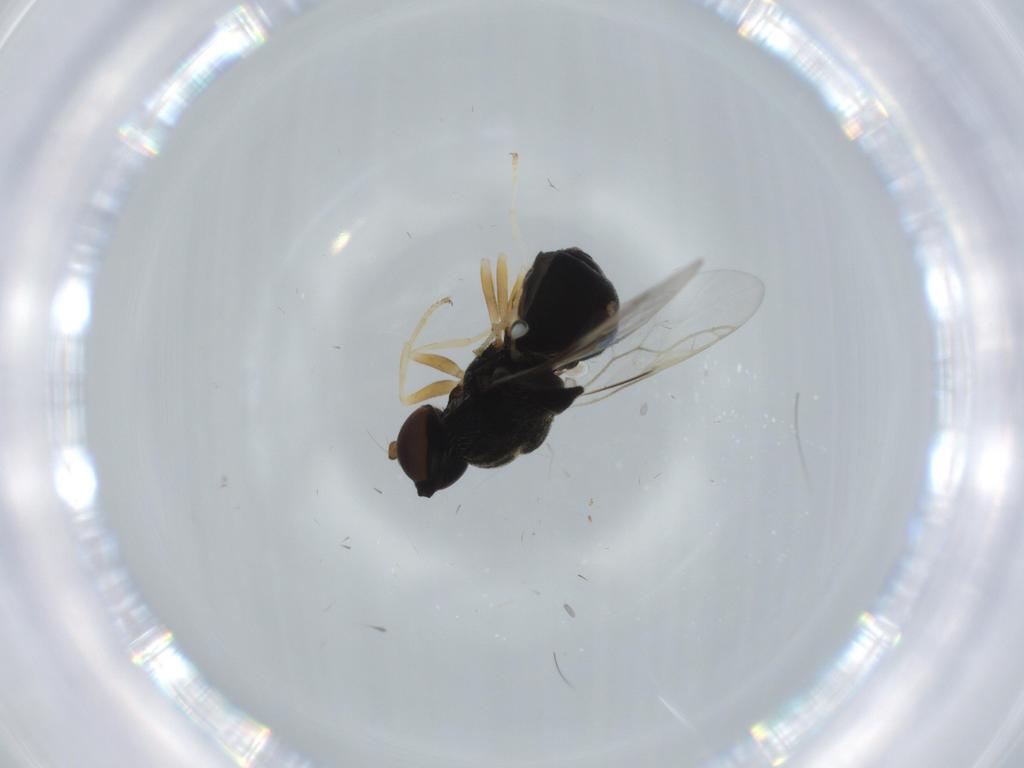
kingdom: Animalia
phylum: Arthropoda
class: Insecta
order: Diptera
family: Stratiomyidae
